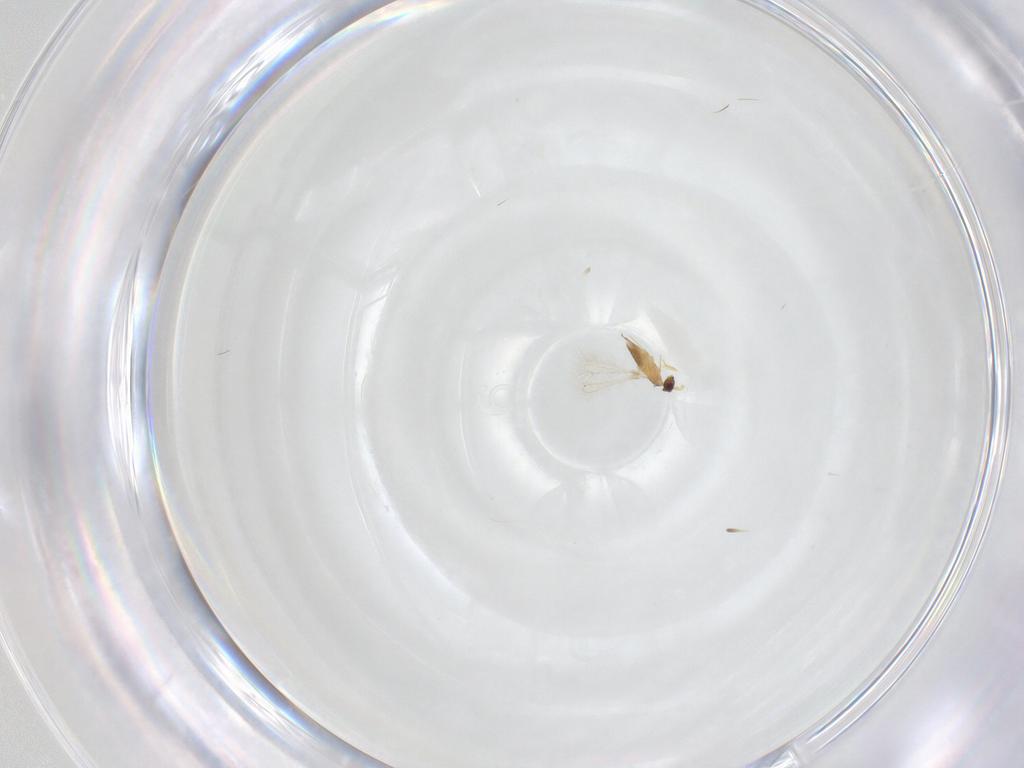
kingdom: Animalia
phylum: Arthropoda
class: Insecta
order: Hymenoptera
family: Mymaridae
